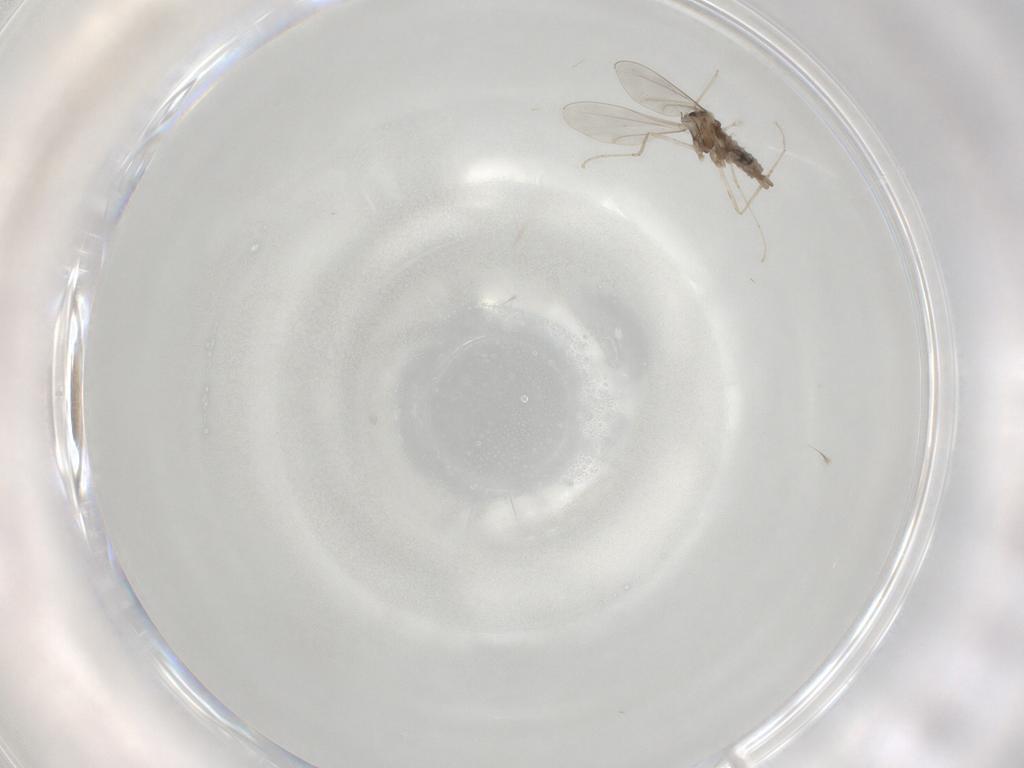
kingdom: Animalia
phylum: Arthropoda
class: Insecta
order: Diptera
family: Cecidomyiidae
